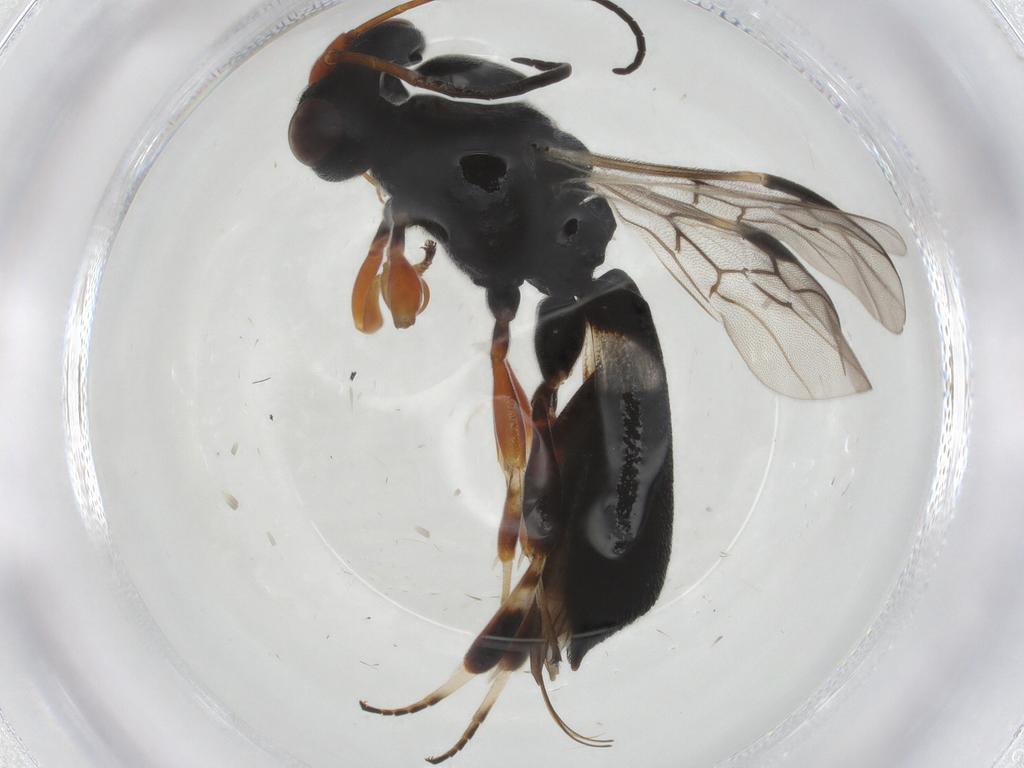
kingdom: Animalia
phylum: Arthropoda
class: Insecta
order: Hymenoptera
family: Braconidae
